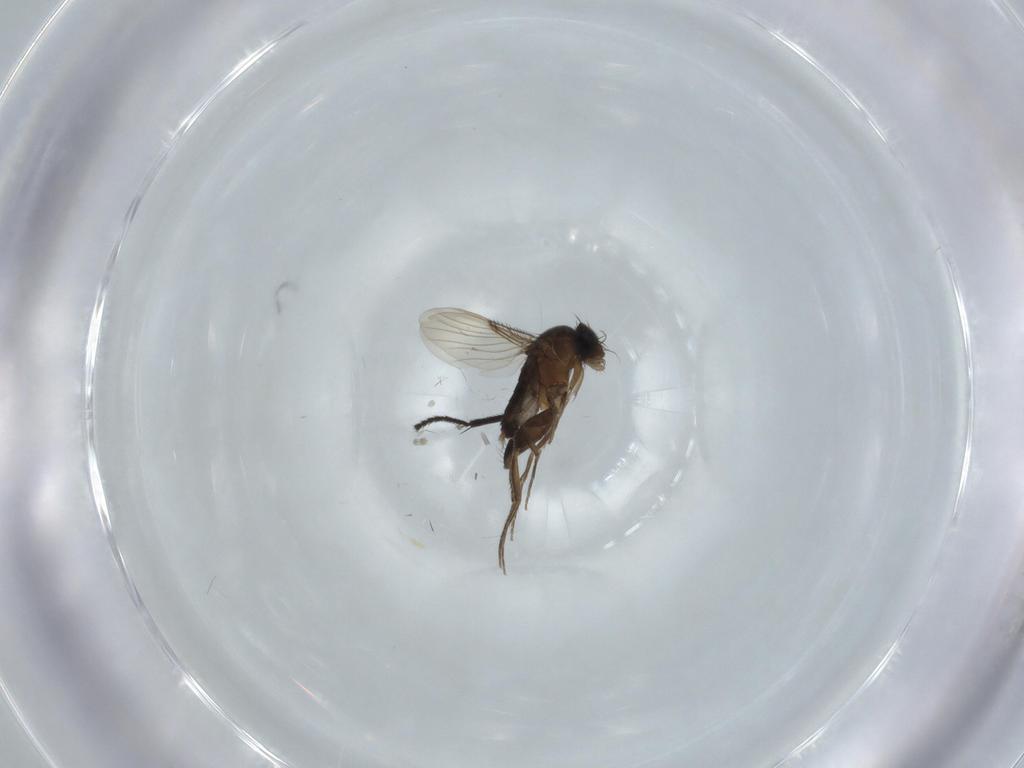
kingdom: Animalia
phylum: Arthropoda
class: Insecta
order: Diptera
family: Phoridae
